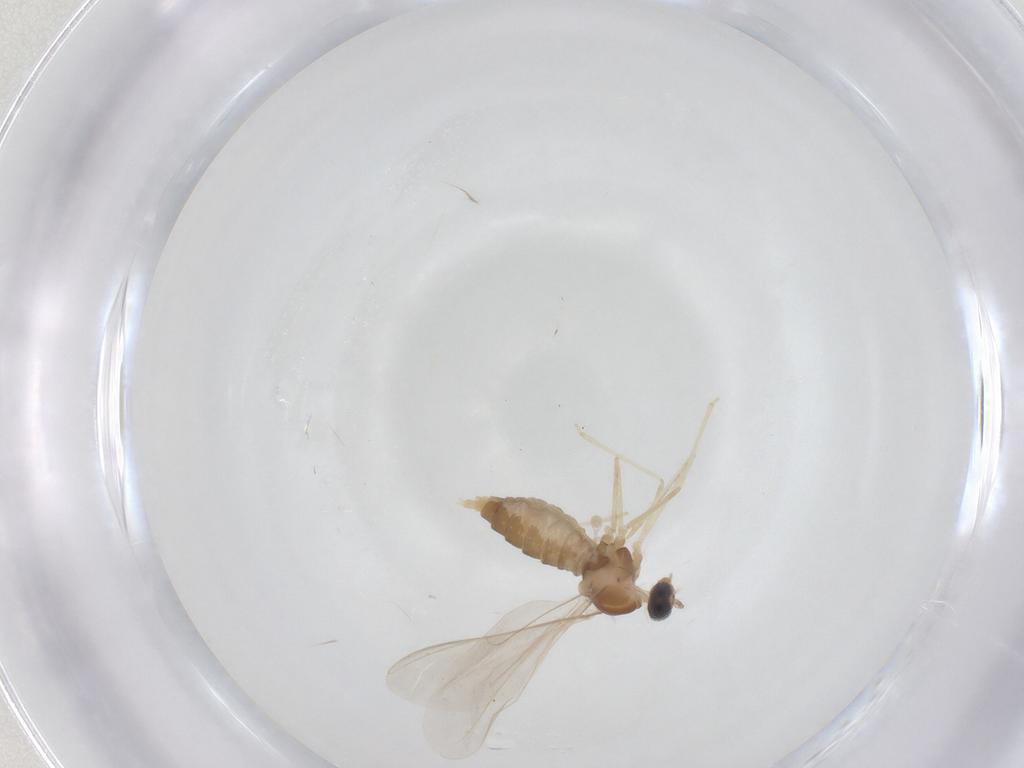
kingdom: Animalia
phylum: Arthropoda
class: Insecta
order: Diptera
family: Cecidomyiidae
